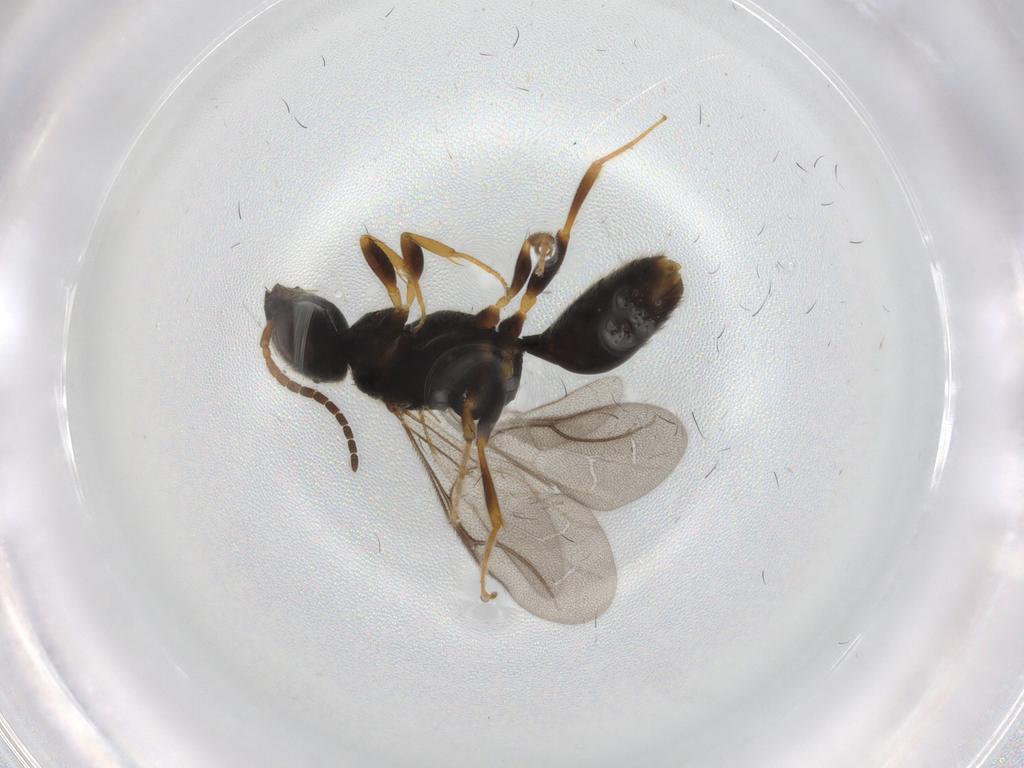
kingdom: Animalia
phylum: Arthropoda
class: Insecta
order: Hymenoptera
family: Bethylidae
